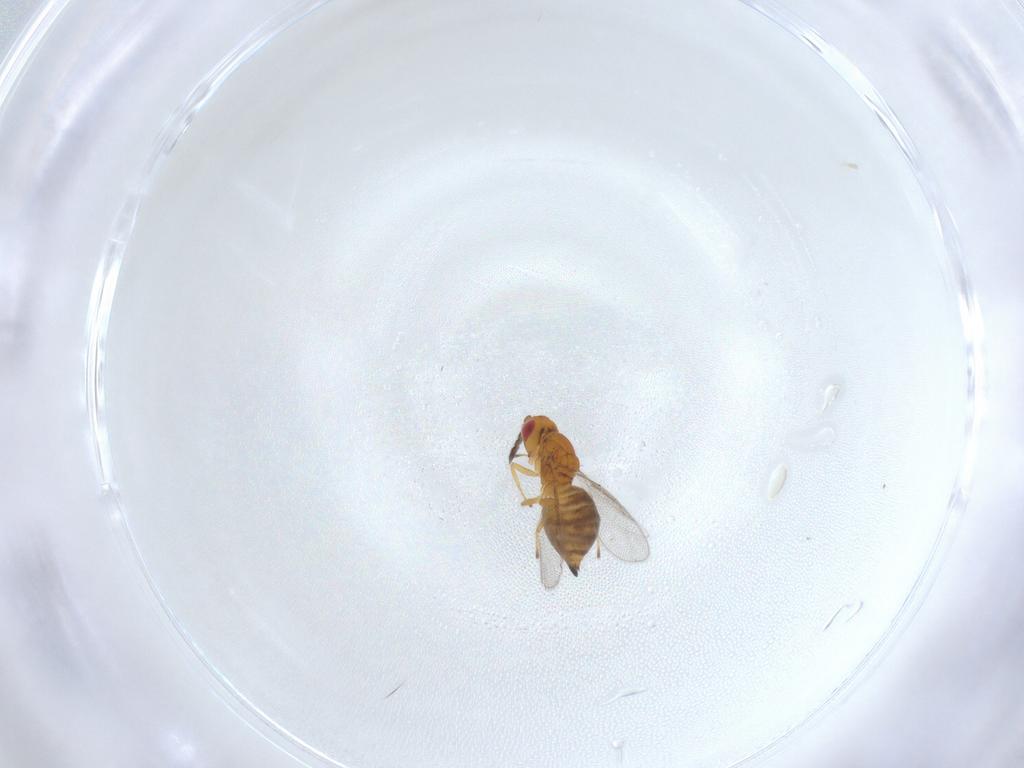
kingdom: Animalia
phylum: Arthropoda
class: Insecta
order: Hymenoptera
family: Eulophidae
